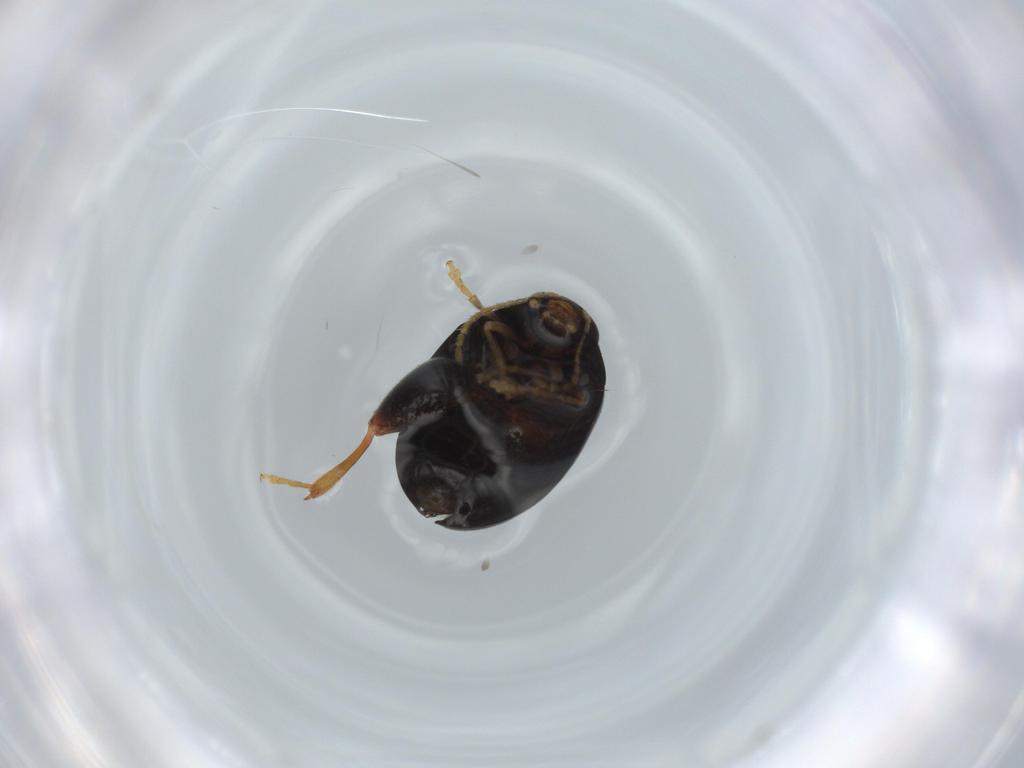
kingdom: Animalia
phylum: Arthropoda
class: Insecta
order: Coleoptera
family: Chrysomelidae
